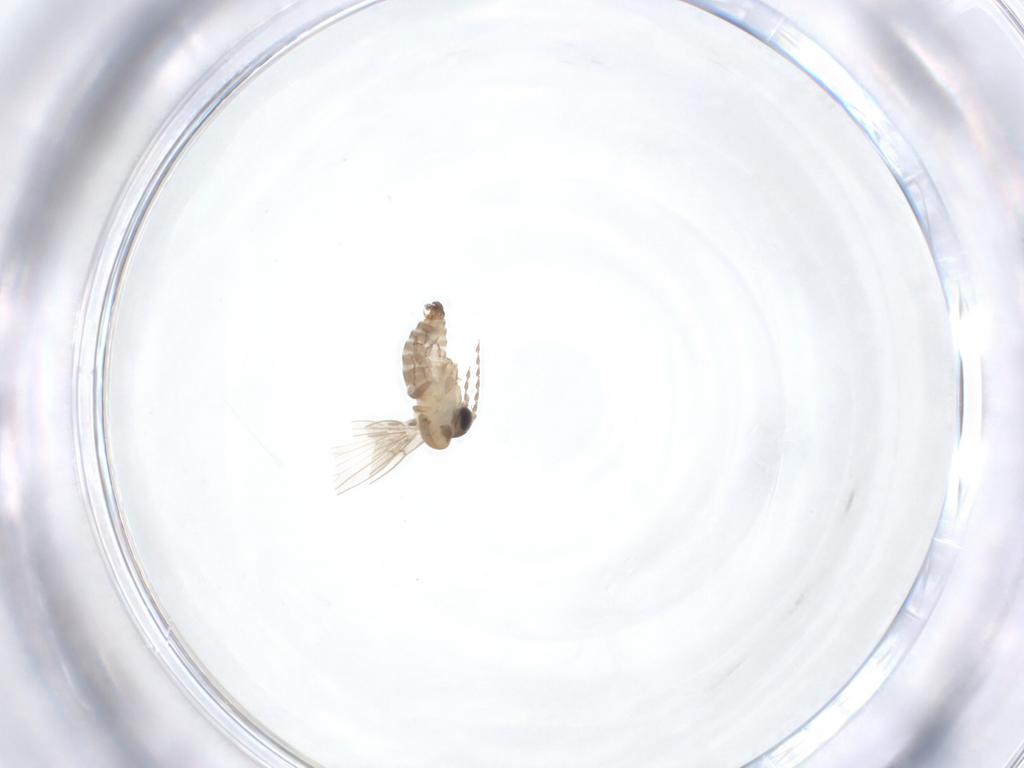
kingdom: Animalia
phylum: Arthropoda
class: Insecta
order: Diptera
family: Psychodidae
